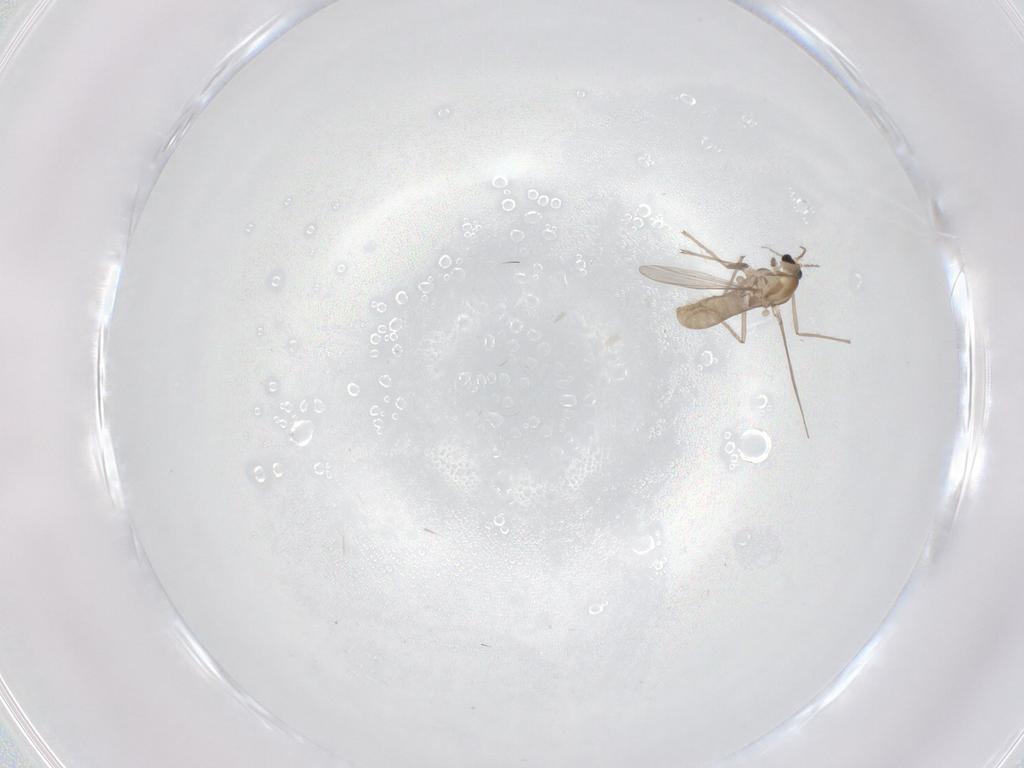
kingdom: Animalia
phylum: Arthropoda
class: Insecta
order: Diptera
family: Chironomidae
